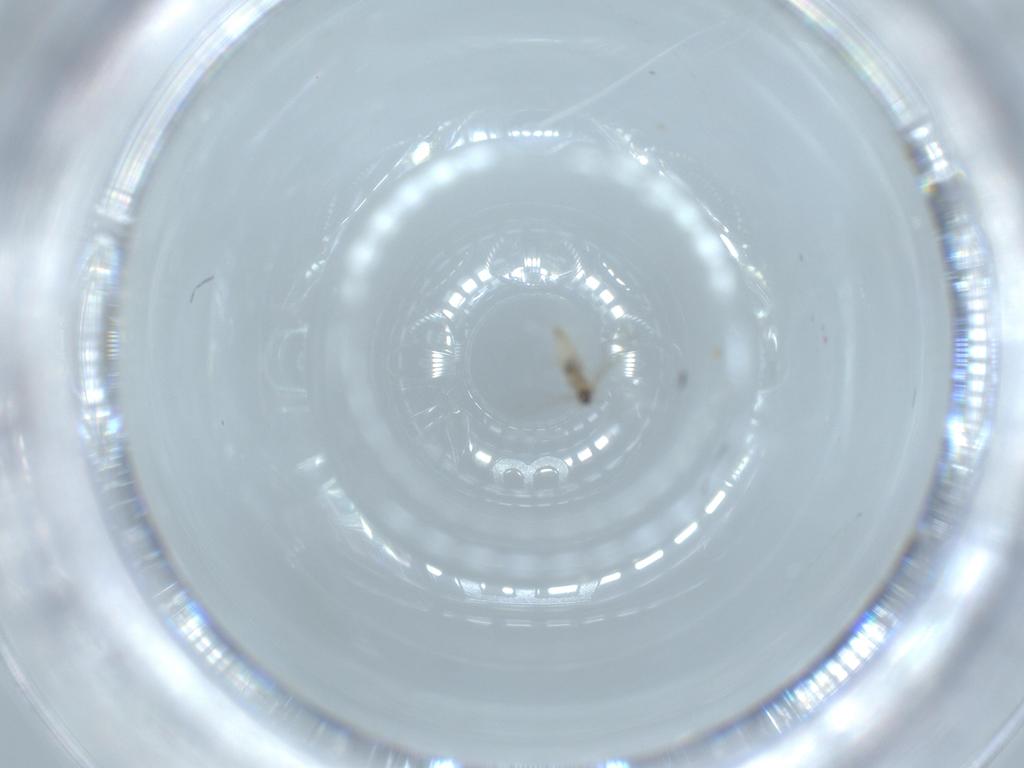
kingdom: Animalia
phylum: Arthropoda
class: Insecta
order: Diptera
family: Cecidomyiidae
